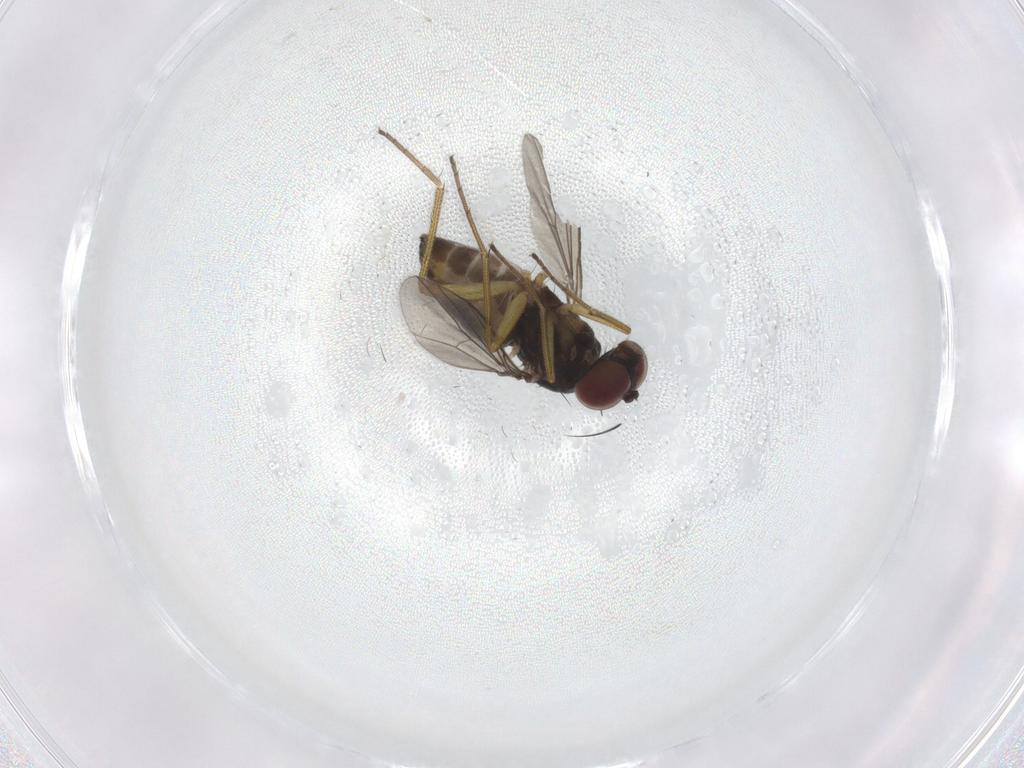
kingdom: Animalia
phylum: Arthropoda
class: Insecta
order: Diptera
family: Dolichopodidae
